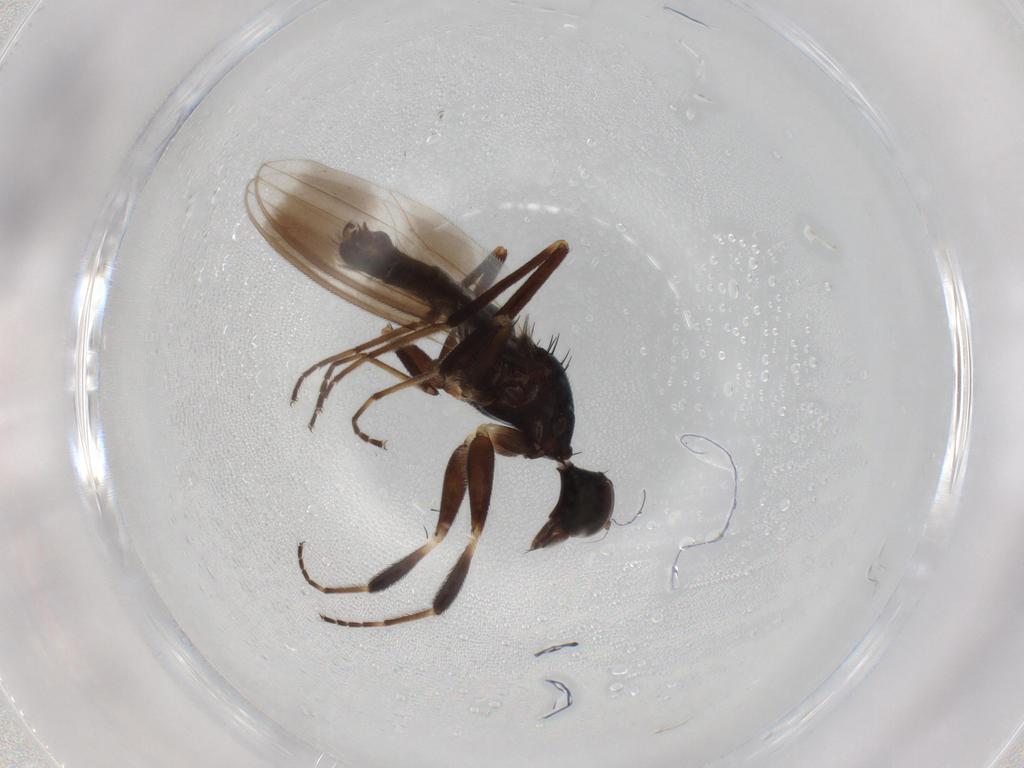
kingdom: Animalia
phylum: Arthropoda
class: Insecta
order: Diptera
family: Hybotidae
